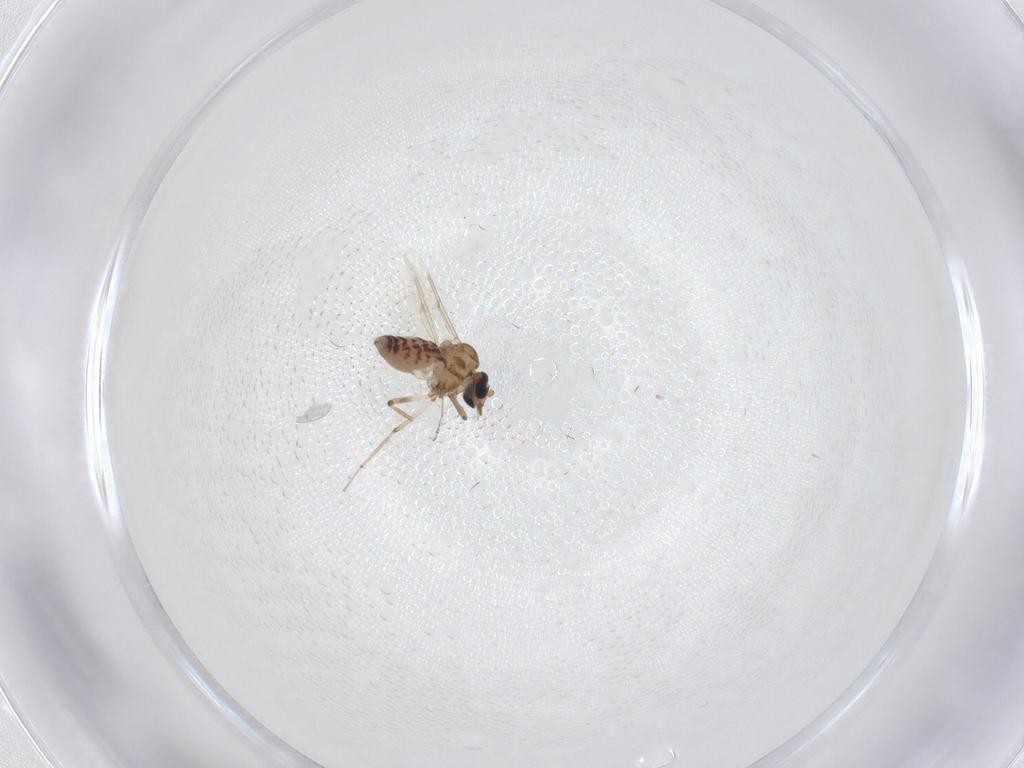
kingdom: Animalia
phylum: Arthropoda
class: Insecta
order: Diptera
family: Ceratopogonidae
